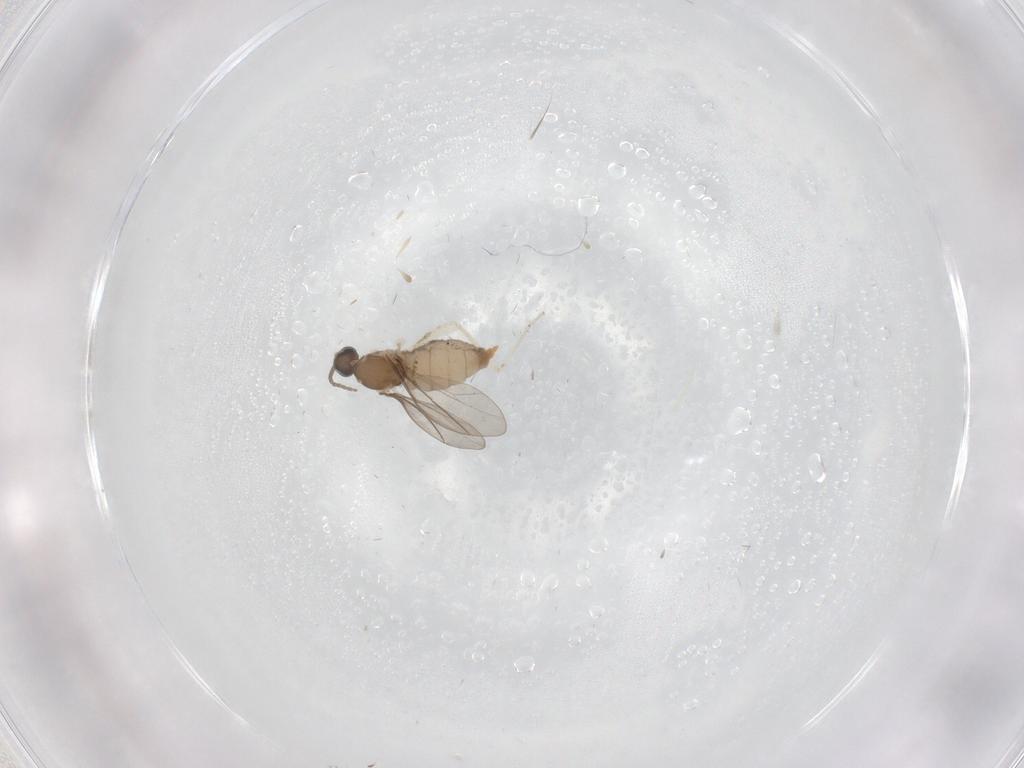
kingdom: Animalia
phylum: Arthropoda
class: Insecta
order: Diptera
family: Cecidomyiidae
